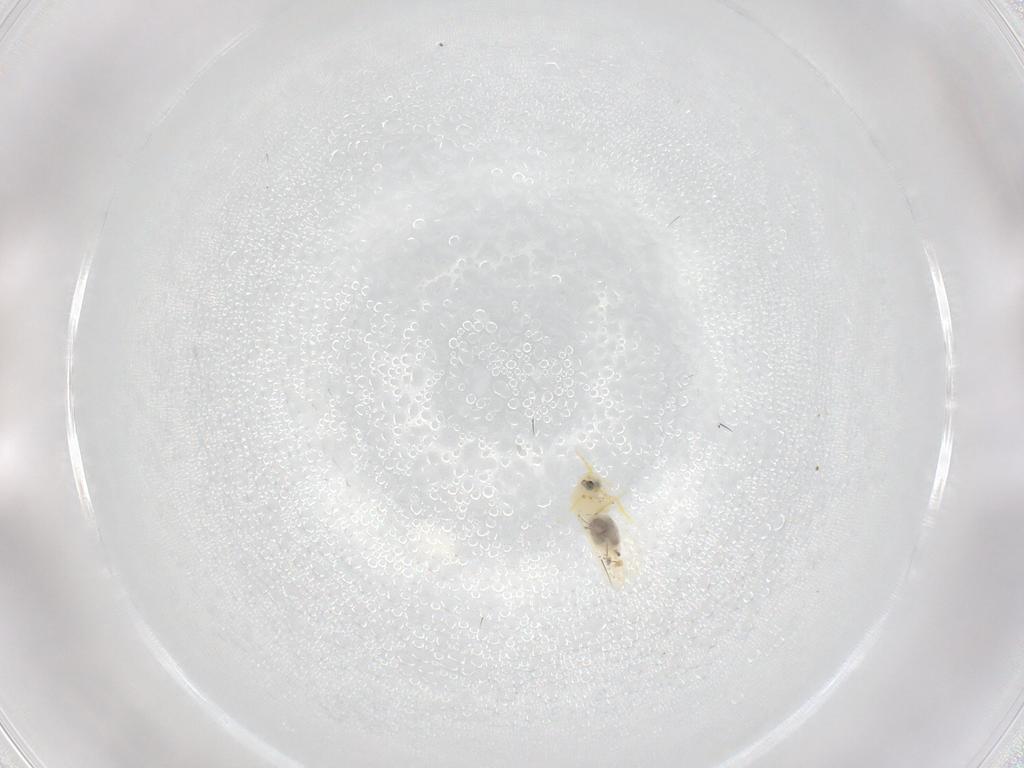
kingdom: Animalia
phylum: Arthropoda
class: Insecta
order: Hemiptera
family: Aleyrodidae
